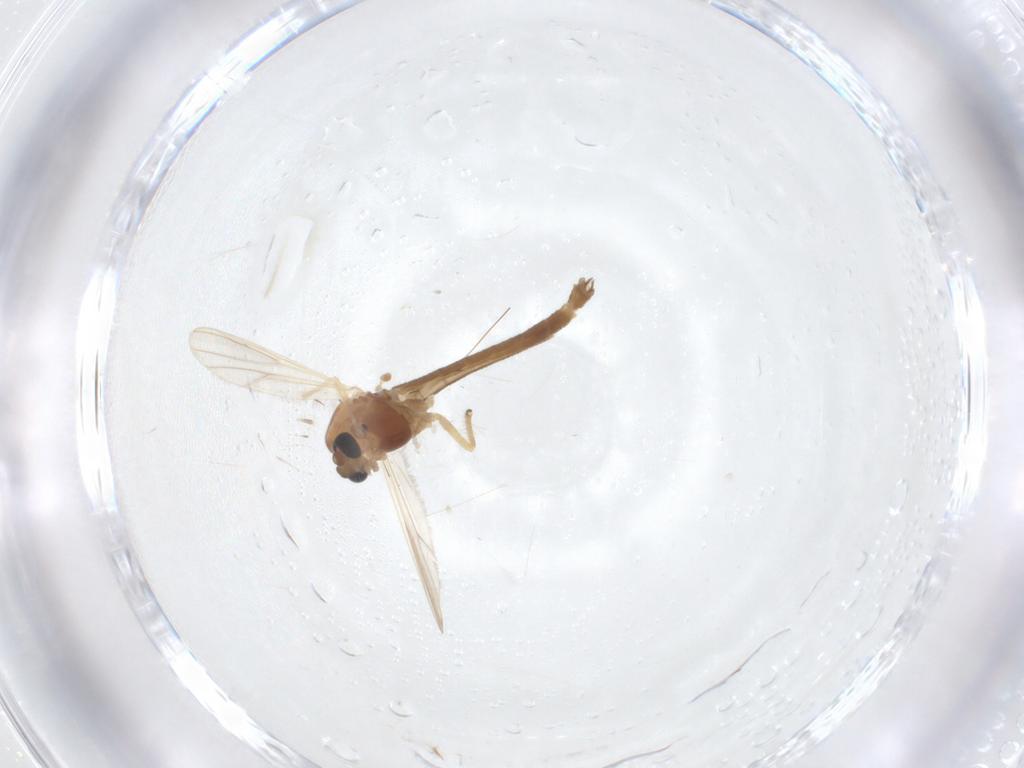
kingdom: Animalia
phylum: Arthropoda
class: Insecta
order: Diptera
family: Chironomidae
